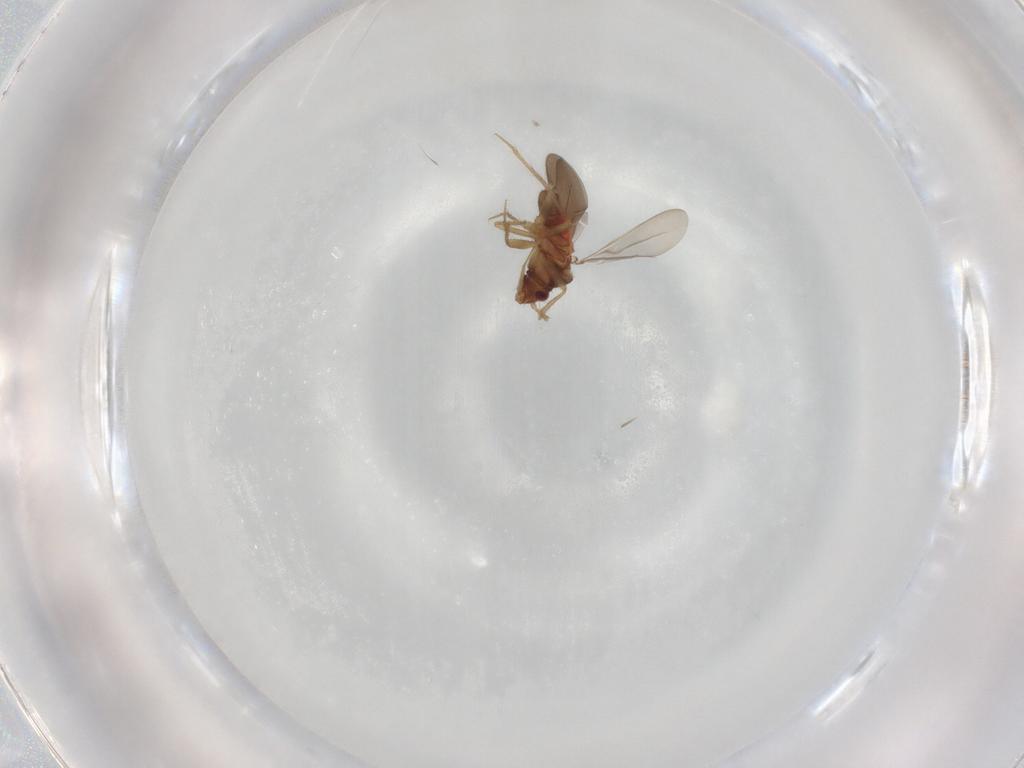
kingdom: Animalia
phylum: Arthropoda
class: Insecta
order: Hemiptera
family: Ceratocombidae
